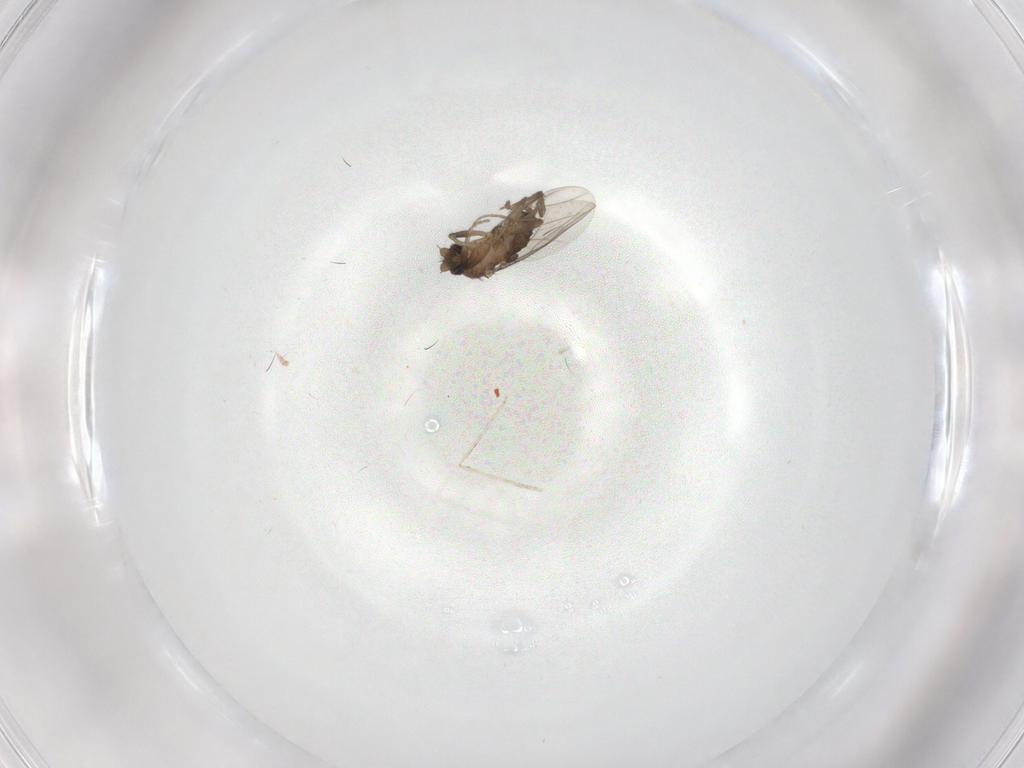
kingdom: Animalia
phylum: Arthropoda
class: Insecta
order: Diptera
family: Phoridae
